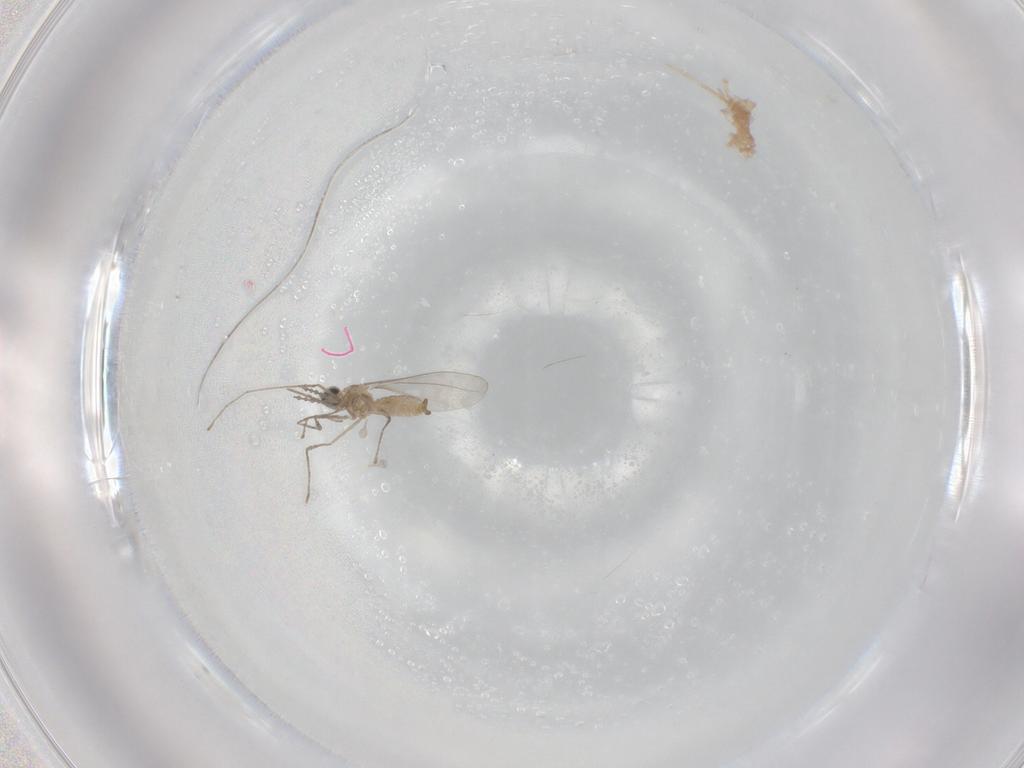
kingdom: Animalia
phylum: Arthropoda
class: Insecta
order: Diptera
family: Cecidomyiidae
